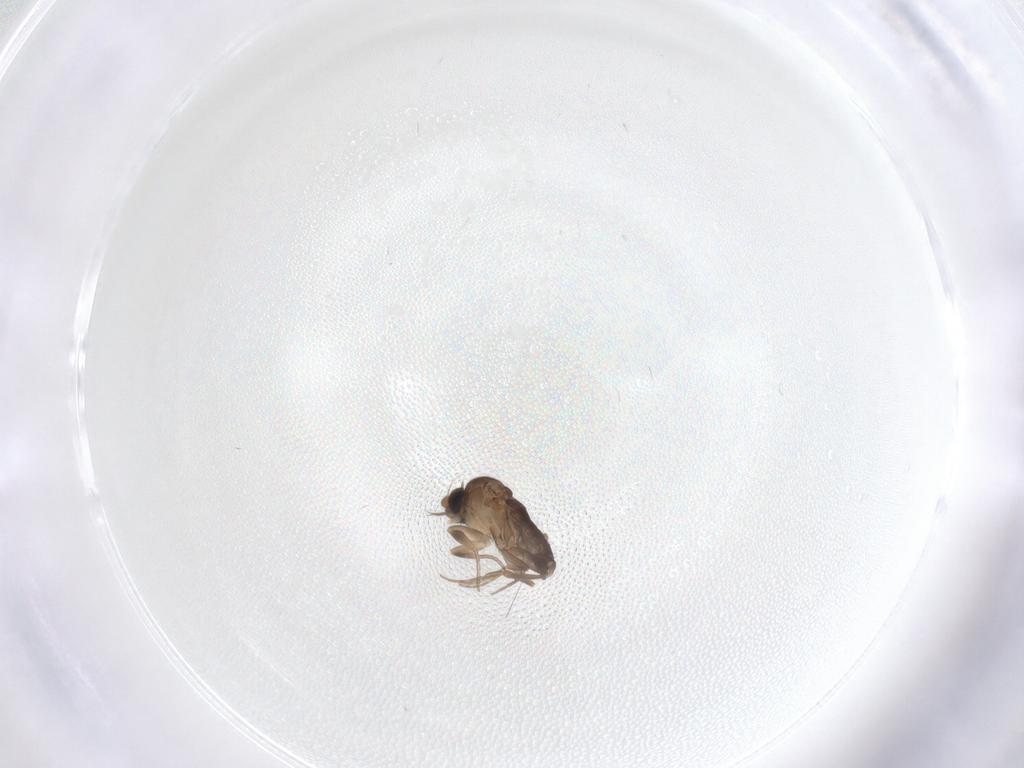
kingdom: Animalia
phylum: Arthropoda
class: Insecta
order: Diptera
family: Phoridae
